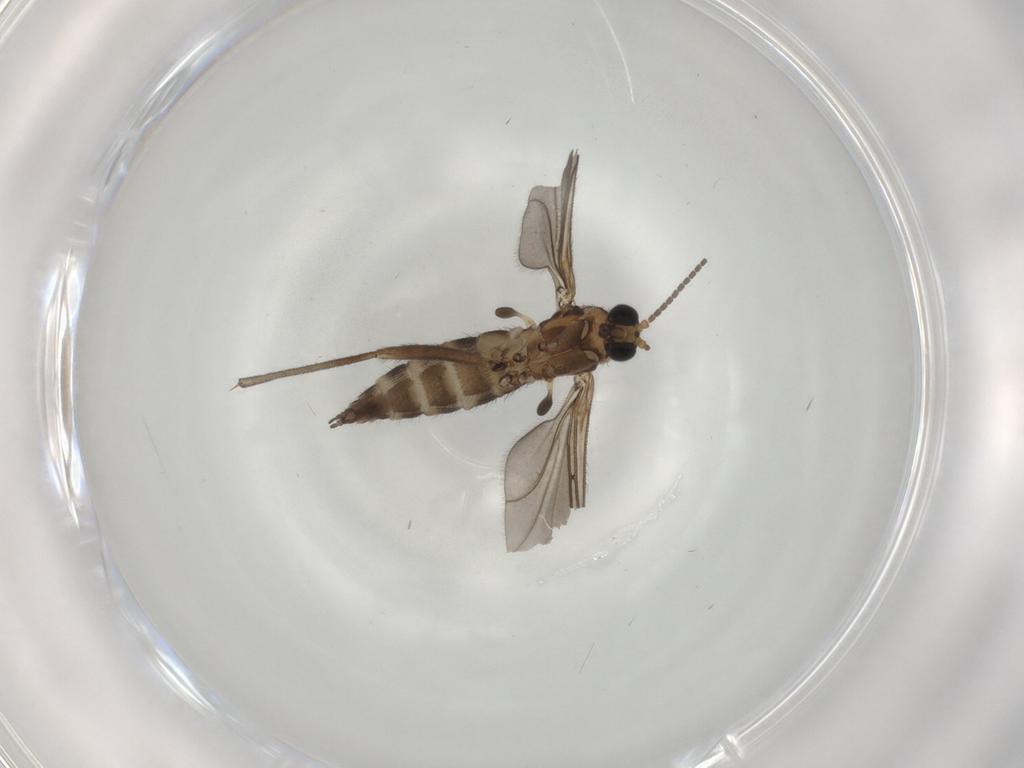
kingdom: Animalia
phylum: Arthropoda
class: Insecta
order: Diptera
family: Sciaridae
